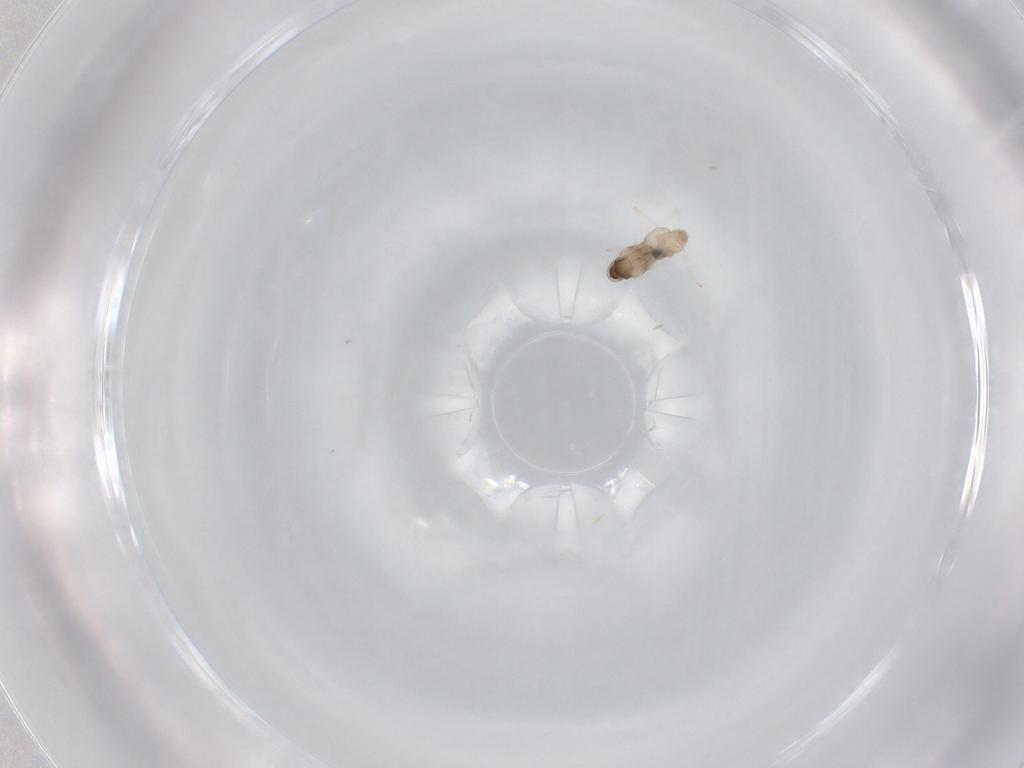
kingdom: Animalia
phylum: Arthropoda
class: Insecta
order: Diptera
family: Cecidomyiidae
